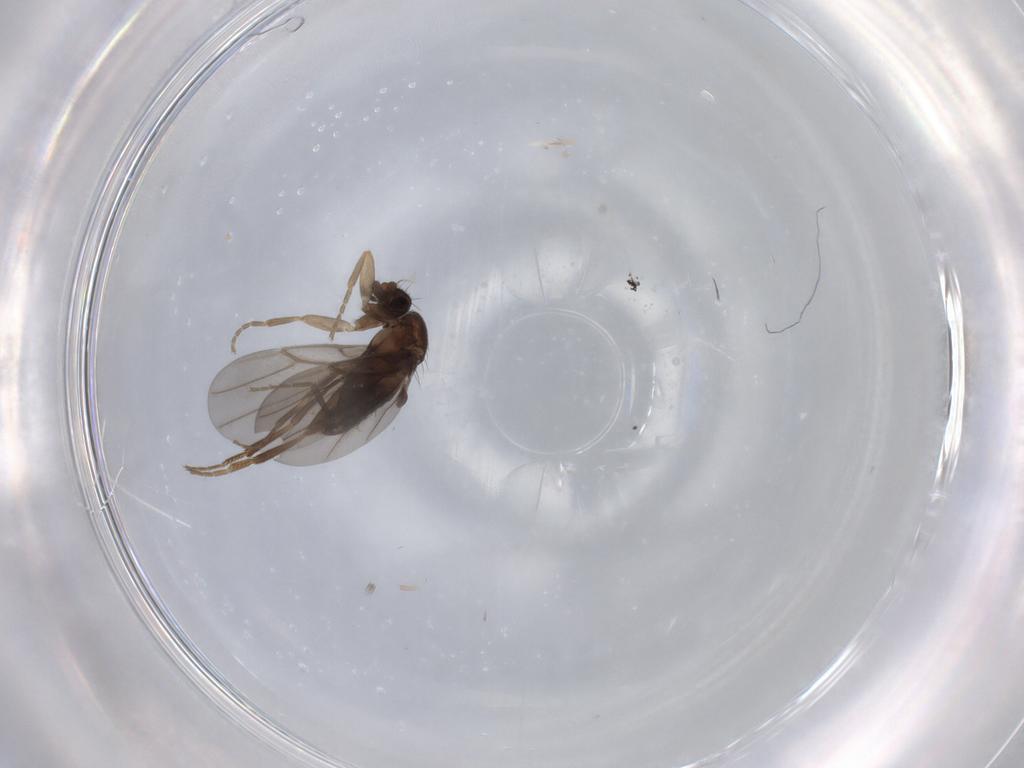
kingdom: Animalia
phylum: Arthropoda
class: Insecta
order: Diptera
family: Phoridae
